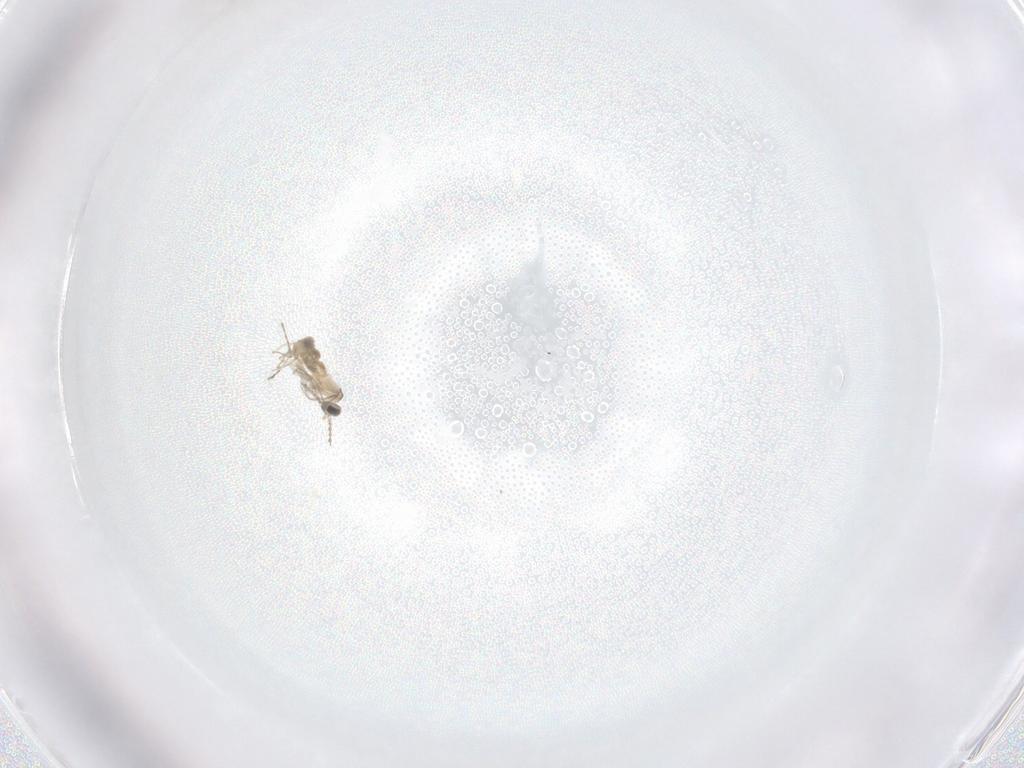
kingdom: Animalia
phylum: Arthropoda
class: Insecta
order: Diptera
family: Cecidomyiidae
